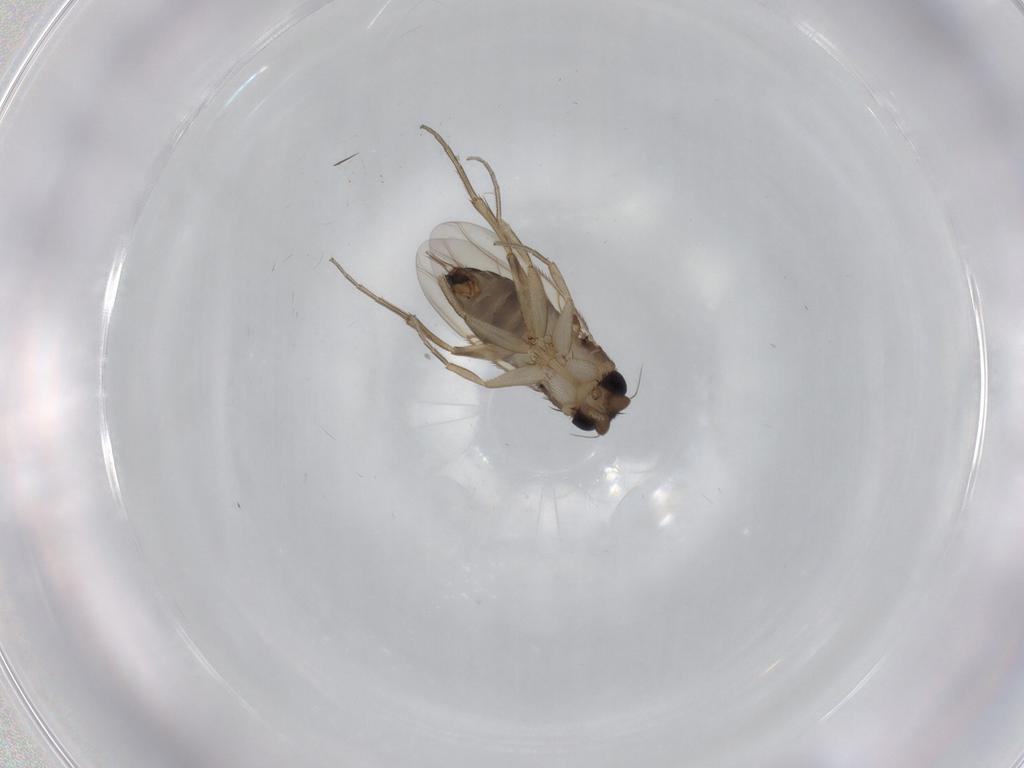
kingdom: Animalia
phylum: Arthropoda
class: Insecta
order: Diptera
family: Phoridae
